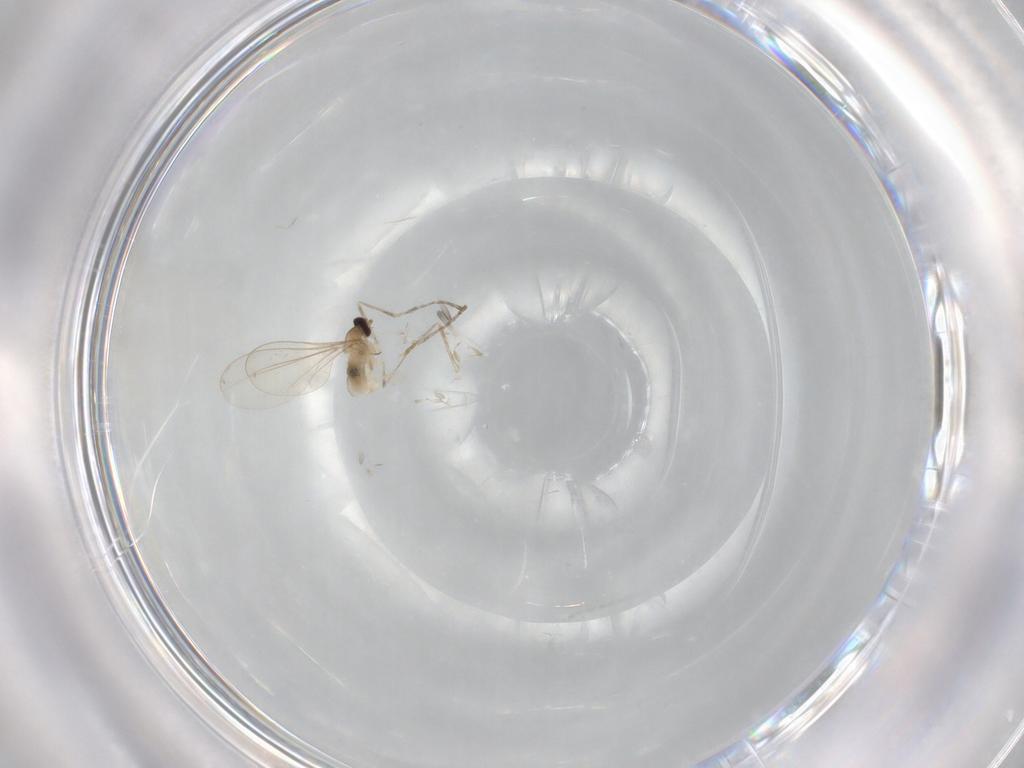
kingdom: Animalia
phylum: Arthropoda
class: Insecta
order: Diptera
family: Cecidomyiidae
